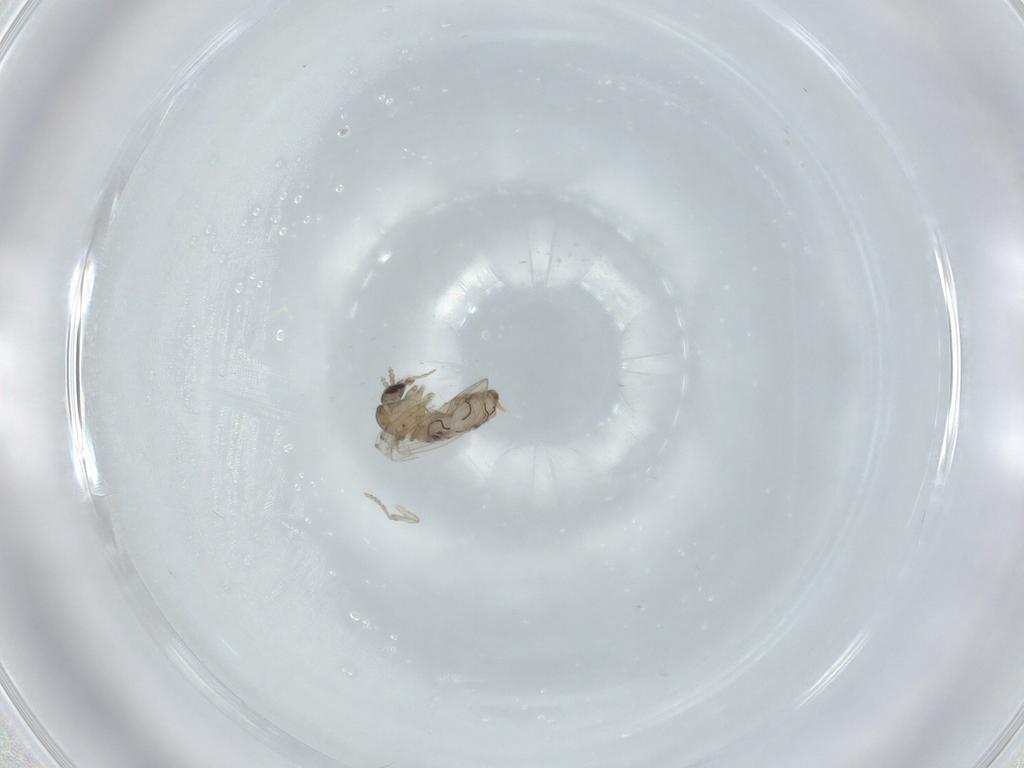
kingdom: Animalia
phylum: Arthropoda
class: Insecta
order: Diptera
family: Psychodidae
